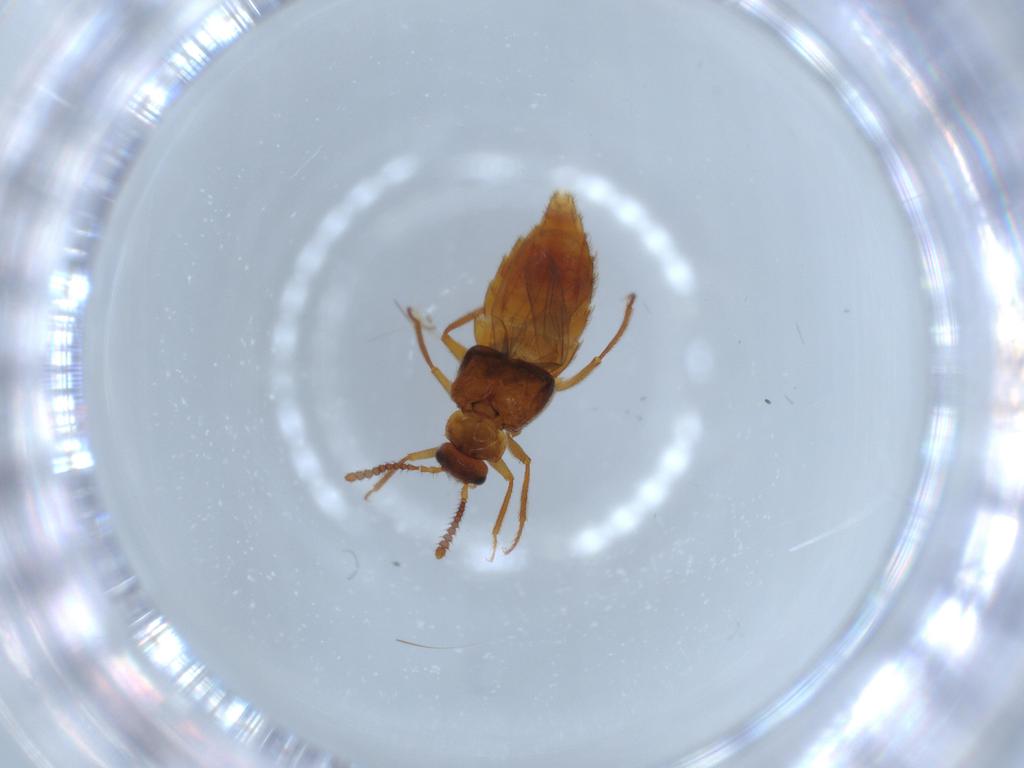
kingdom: Animalia
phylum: Arthropoda
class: Insecta
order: Coleoptera
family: Staphylinidae
